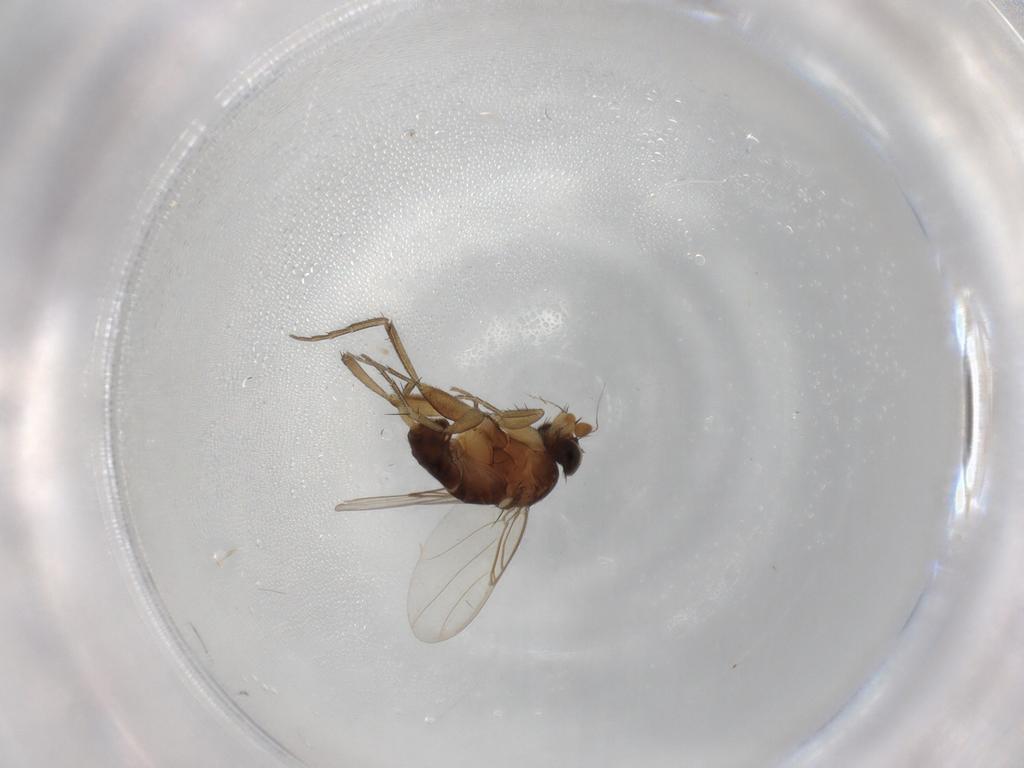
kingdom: Animalia
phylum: Arthropoda
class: Insecta
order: Diptera
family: Phoridae
